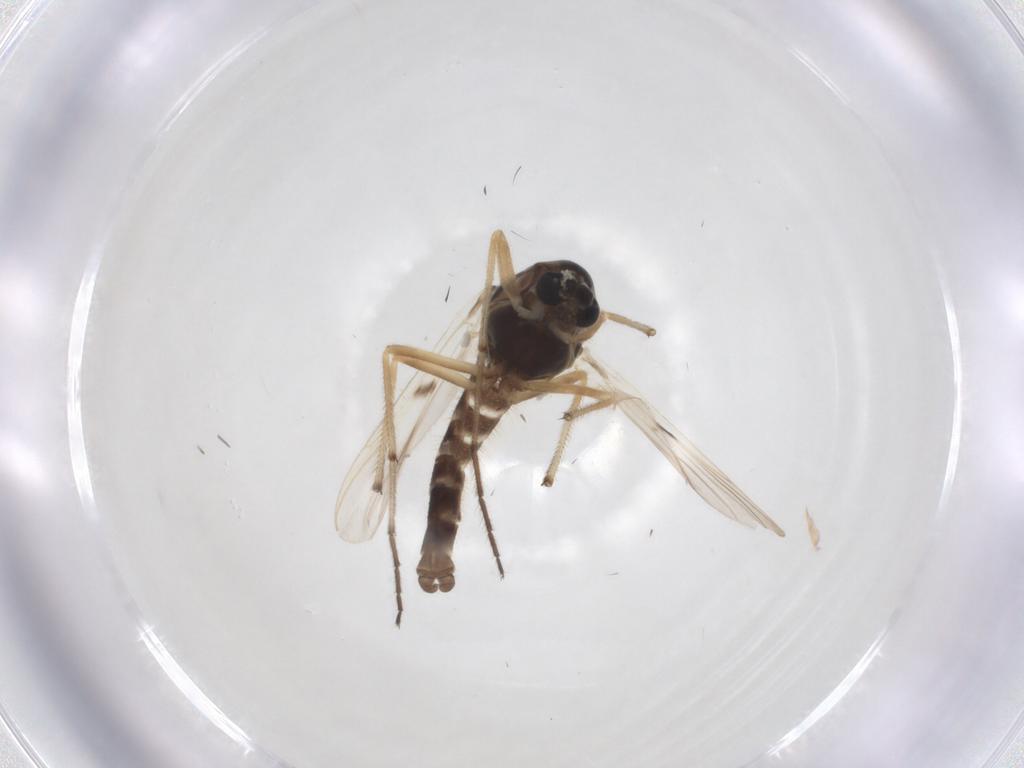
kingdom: Animalia
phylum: Arthropoda
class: Insecta
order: Diptera
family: Chironomidae
